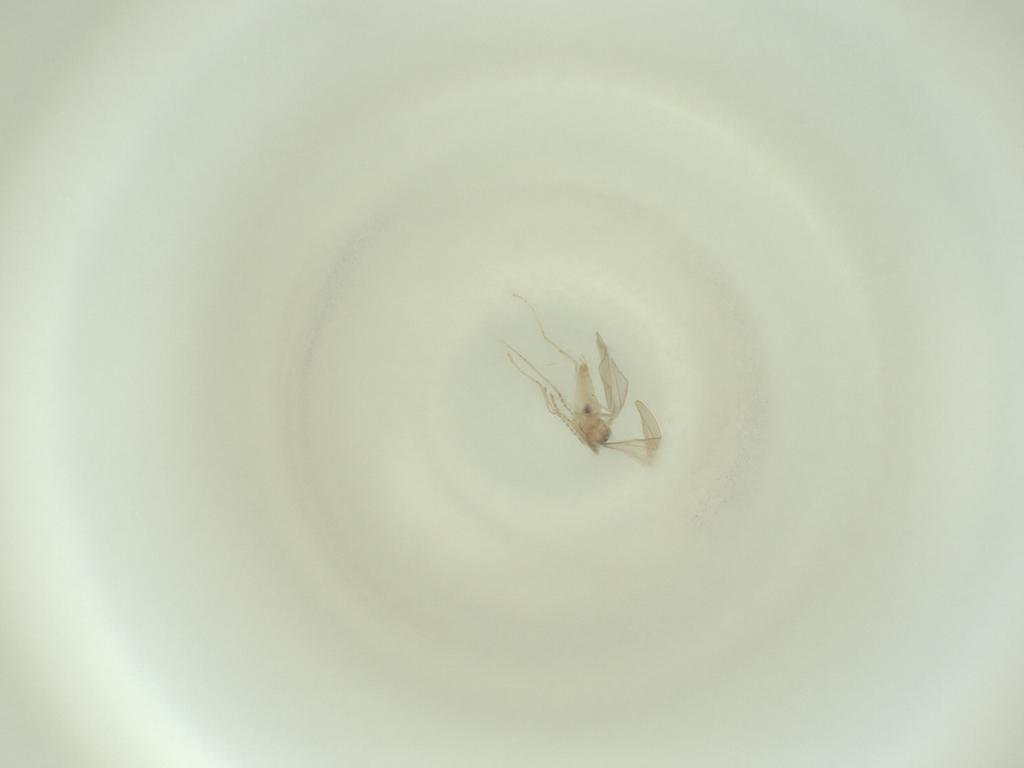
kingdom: Animalia
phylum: Arthropoda
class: Insecta
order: Diptera
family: Cecidomyiidae
